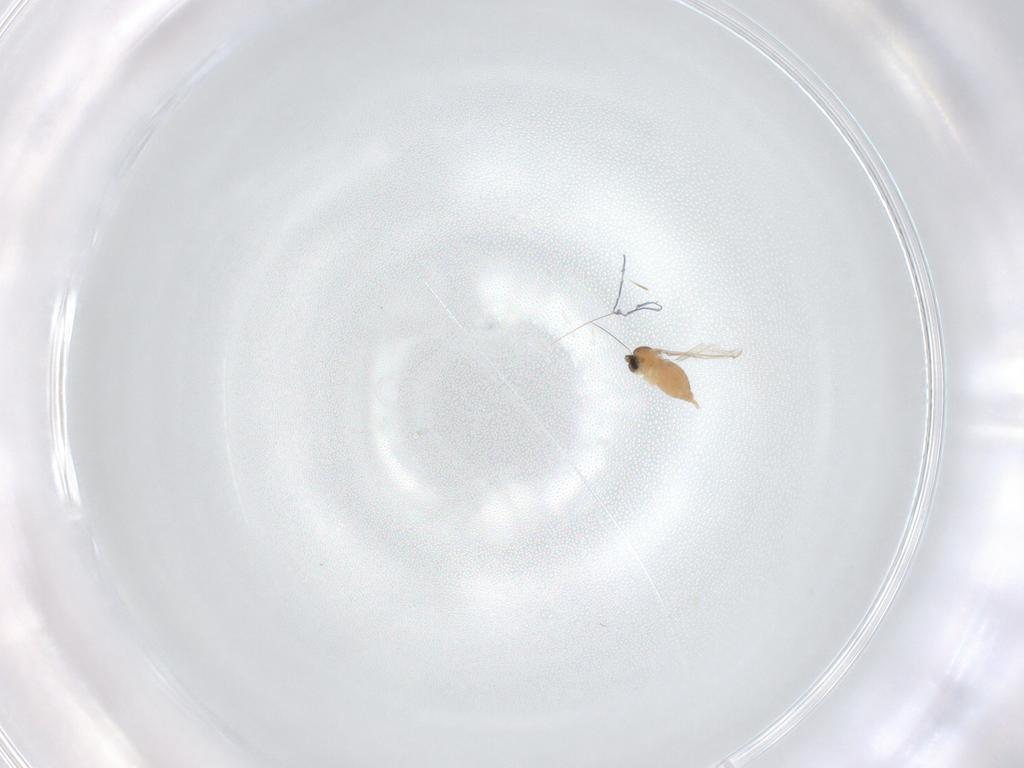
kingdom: Animalia
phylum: Arthropoda
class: Insecta
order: Diptera
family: Cecidomyiidae
